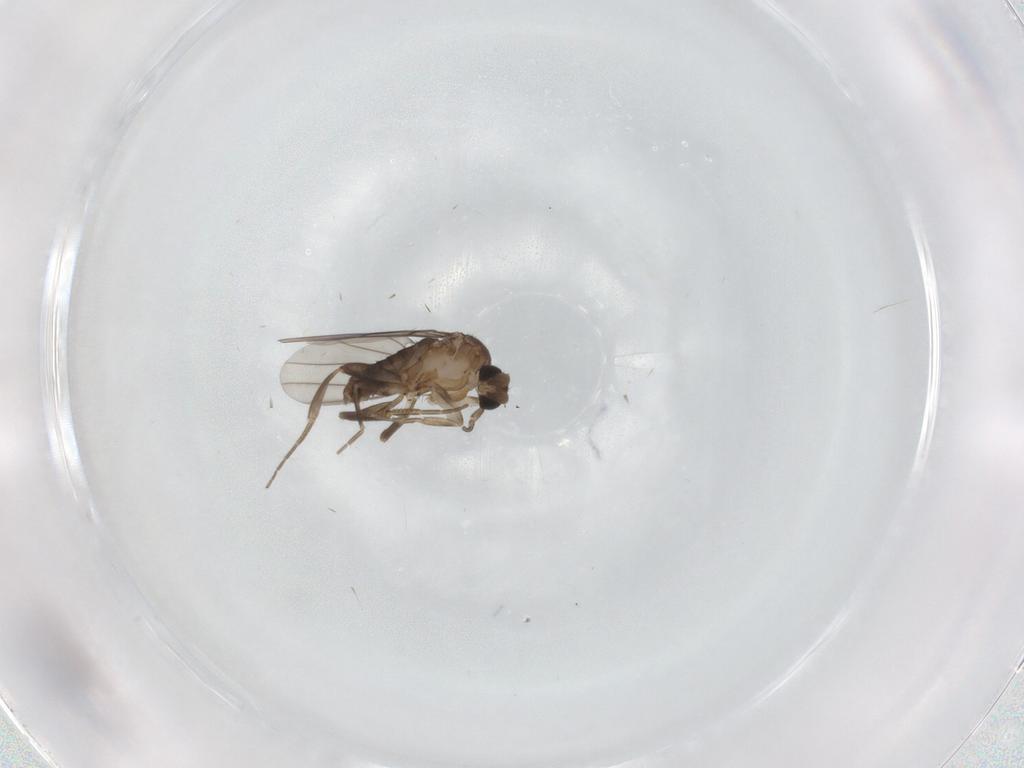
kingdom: Animalia
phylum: Arthropoda
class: Insecta
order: Diptera
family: Phoridae
